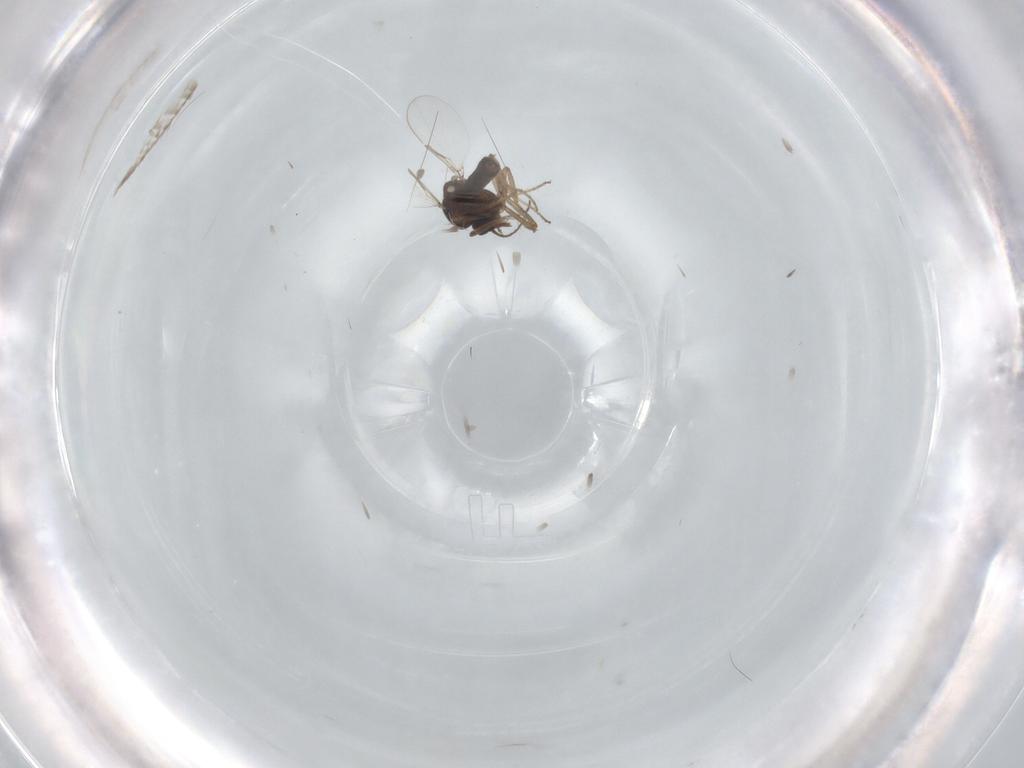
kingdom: Animalia
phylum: Arthropoda
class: Insecta
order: Diptera
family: Ceratopogonidae
